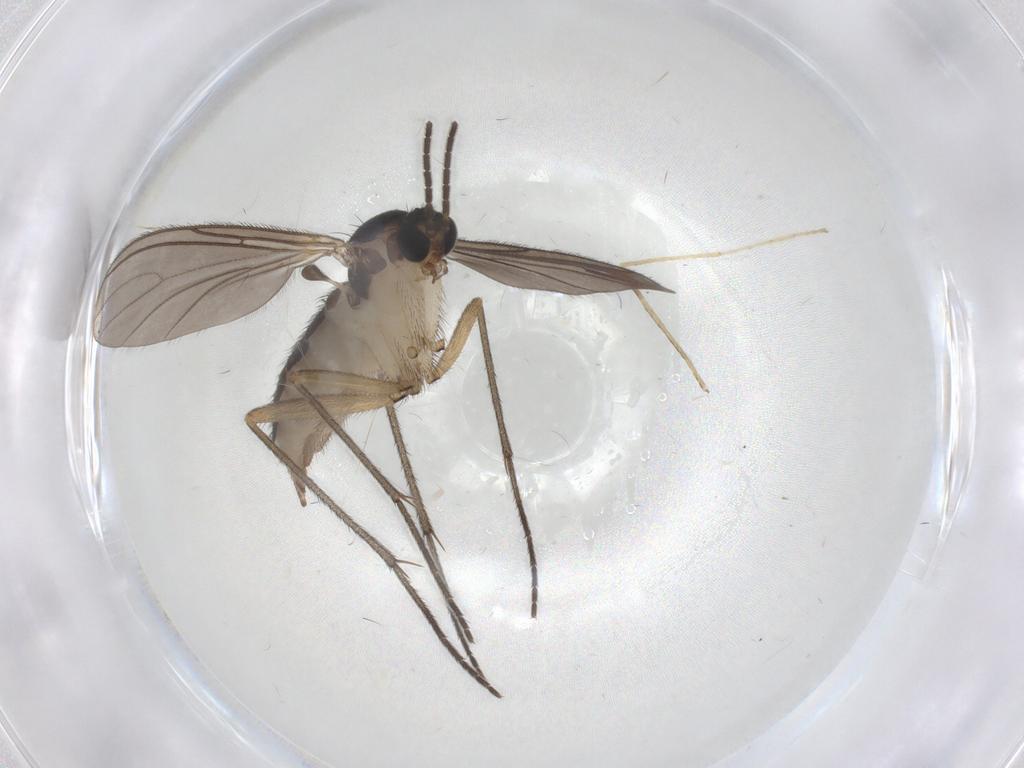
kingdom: Animalia
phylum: Arthropoda
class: Insecta
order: Diptera
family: Sciaridae
